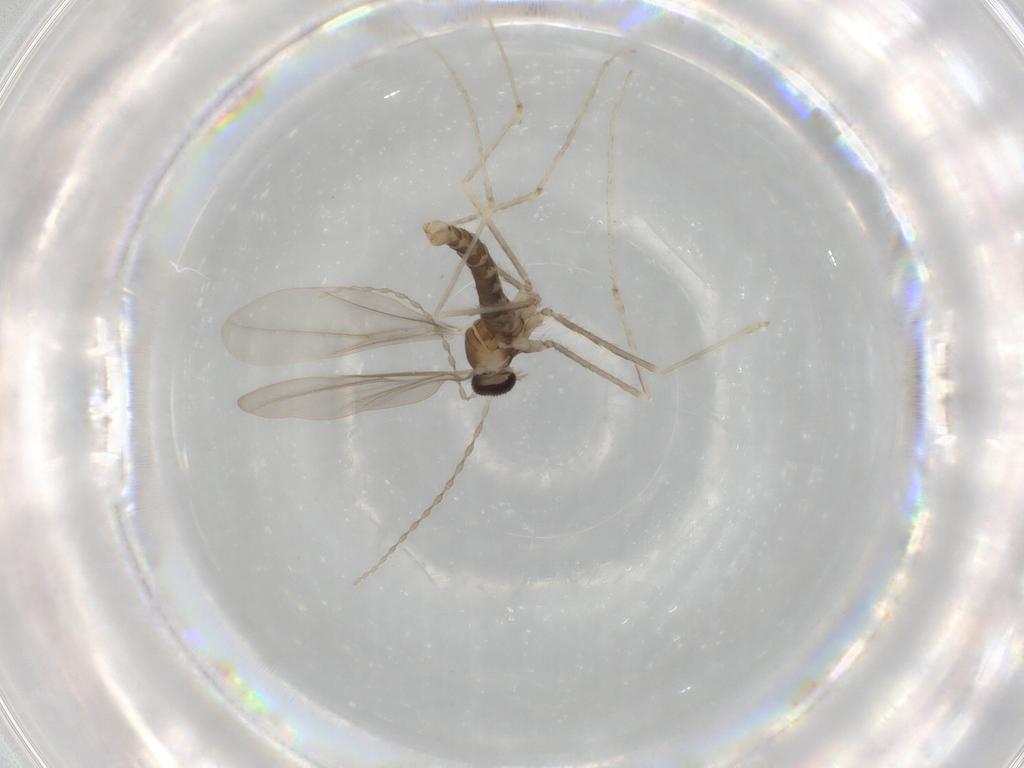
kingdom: Animalia
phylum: Arthropoda
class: Insecta
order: Diptera
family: Cecidomyiidae
